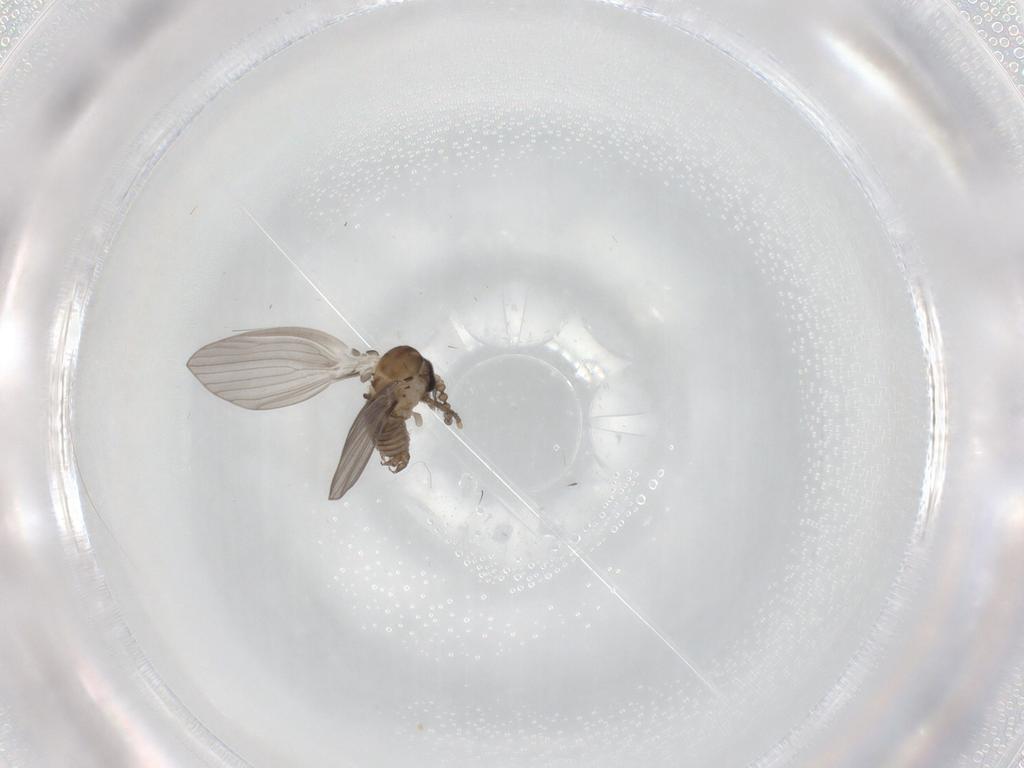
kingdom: Animalia
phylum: Arthropoda
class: Insecta
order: Diptera
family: Psychodidae
